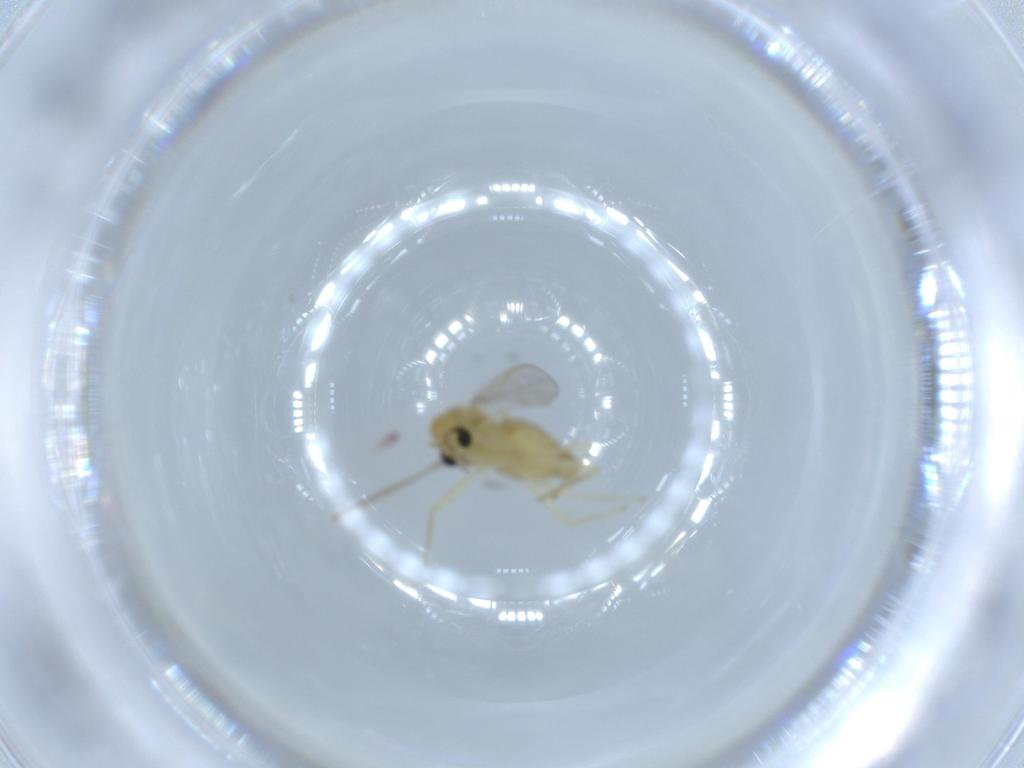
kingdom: Animalia
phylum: Arthropoda
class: Insecta
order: Diptera
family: Chironomidae
